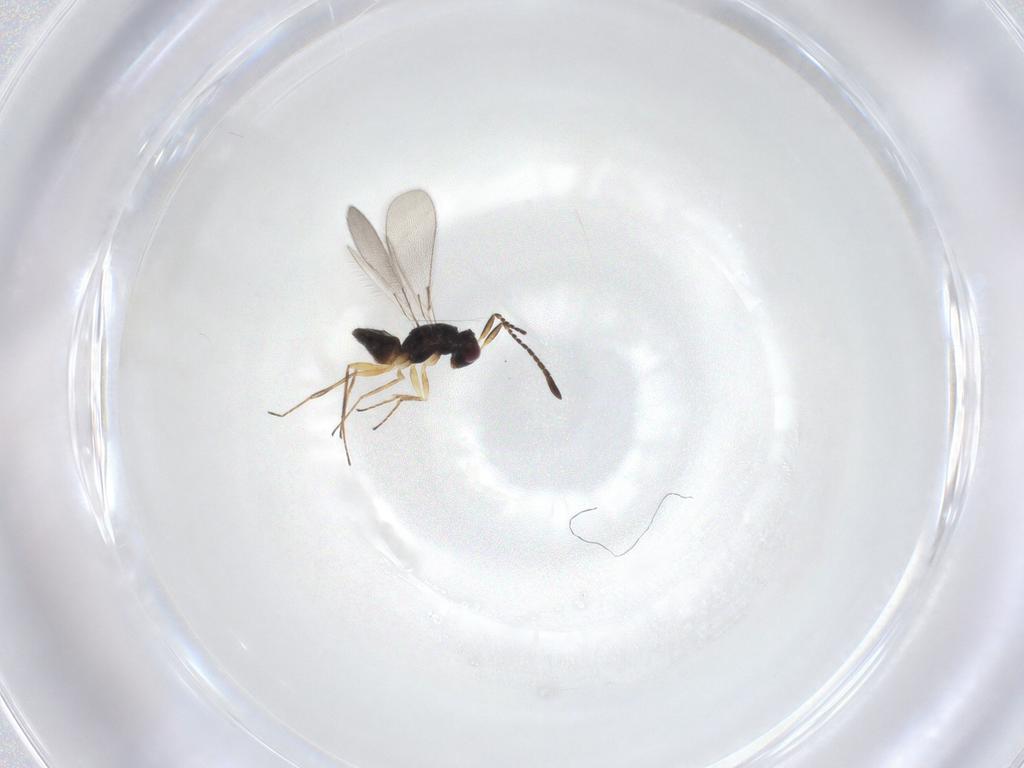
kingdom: Animalia
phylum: Arthropoda
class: Insecta
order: Hymenoptera
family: Mymaridae
